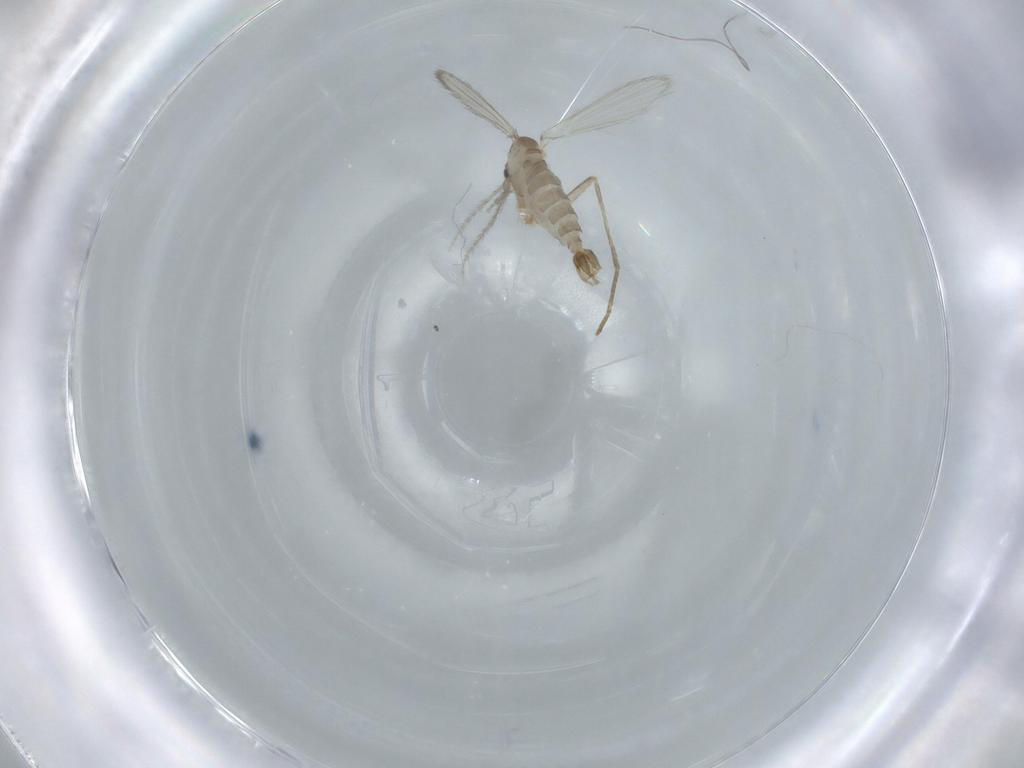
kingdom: Animalia
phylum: Arthropoda
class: Insecta
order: Diptera
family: Psychodidae
